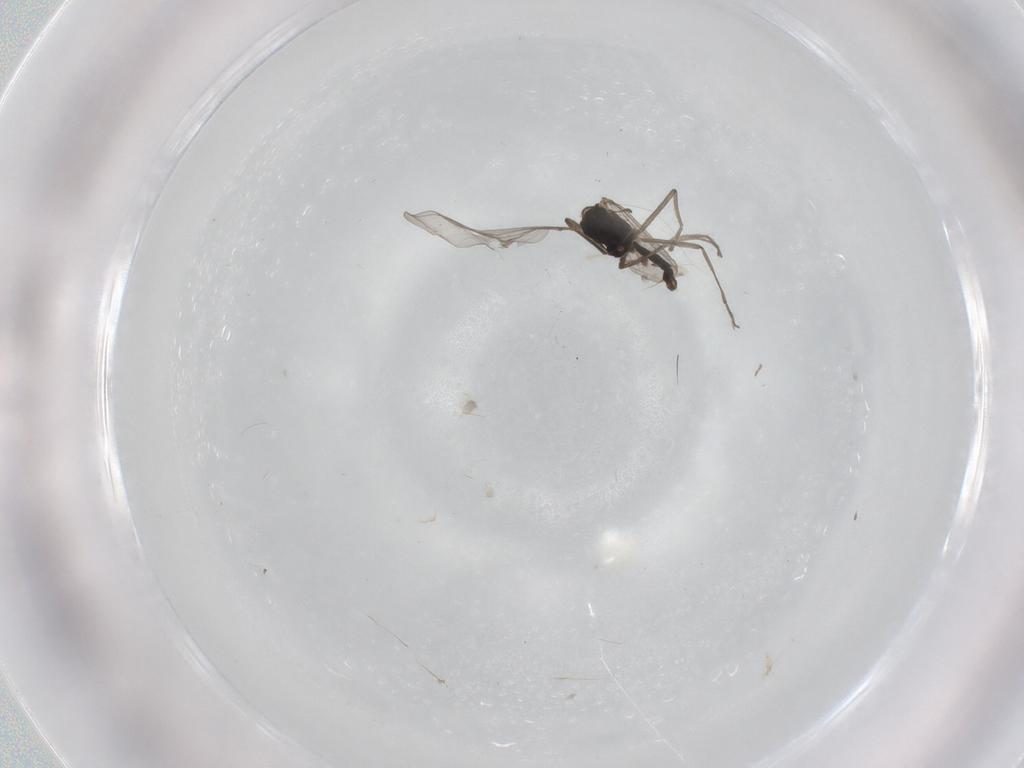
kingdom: Animalia
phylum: Arthropoda
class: Insecta
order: Diptera
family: Chironomidae
